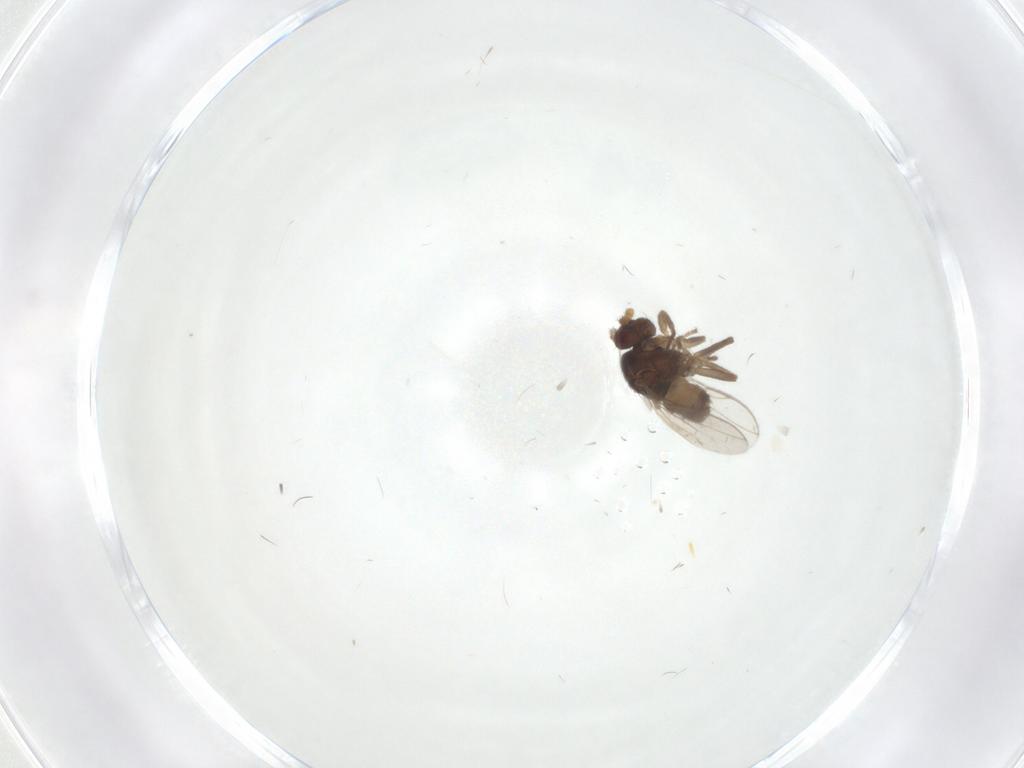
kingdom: Animalia
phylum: Arthropoda
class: Insecta
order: Diptera
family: Sphaeroceridae
